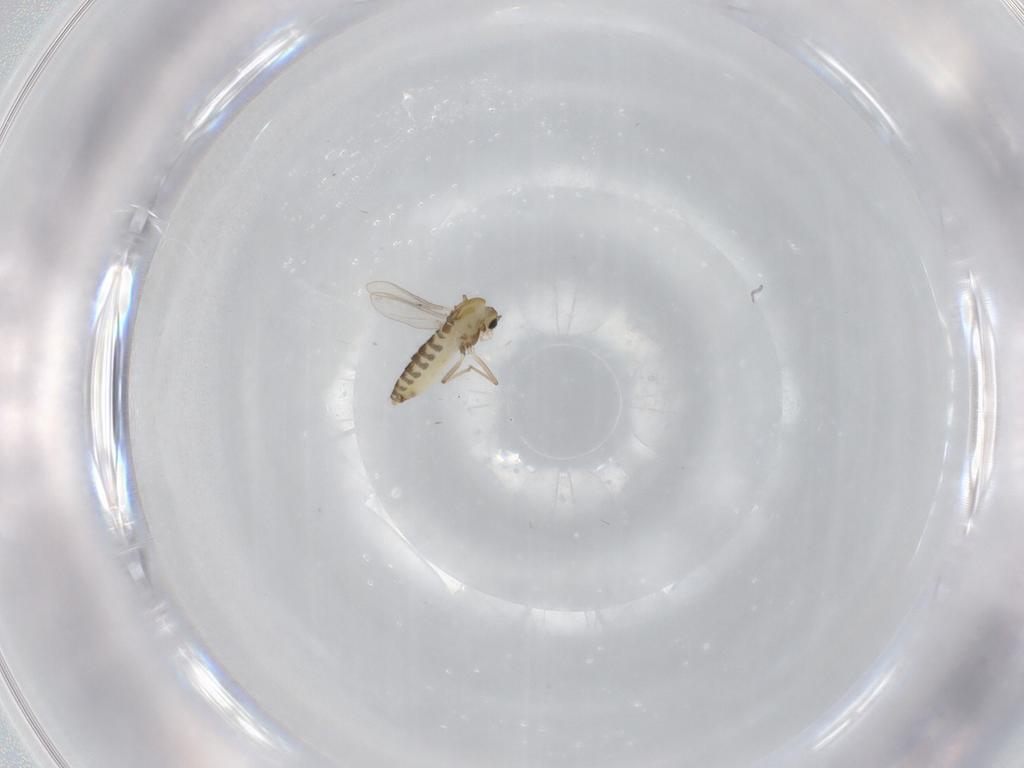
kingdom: Animalia
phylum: Arthropoda
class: Insecta
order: Diptera
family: Chironomidae
